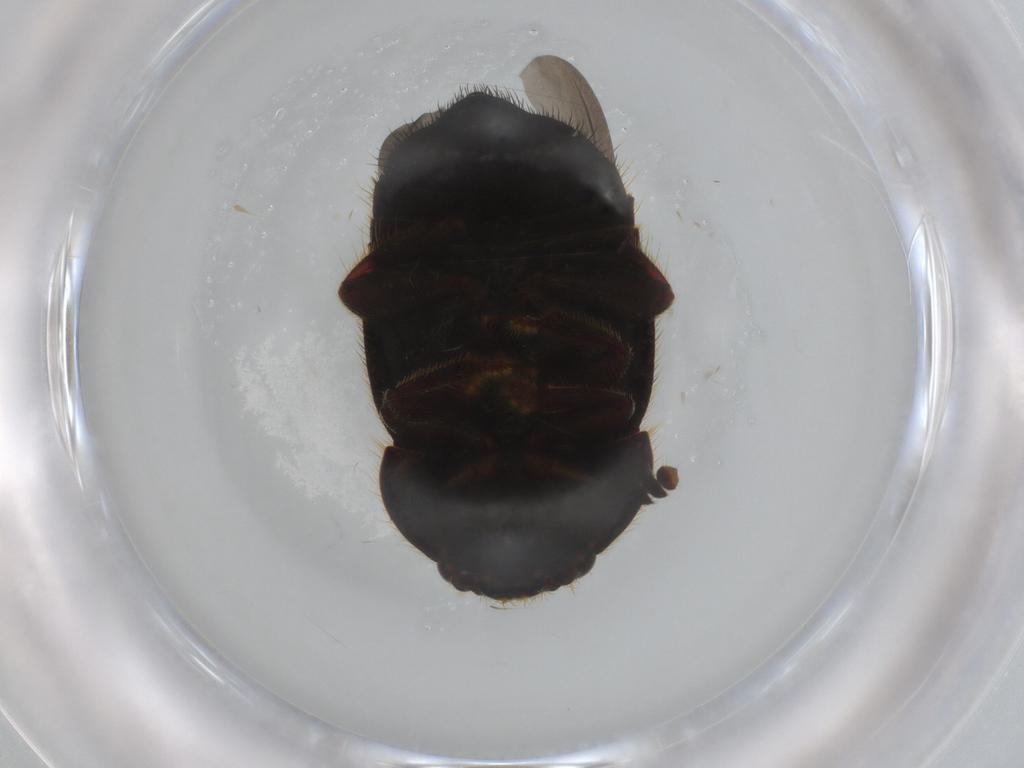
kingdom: Animalia
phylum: Arthropoda
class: Insecta
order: Coleoptera
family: Nitidulidae
